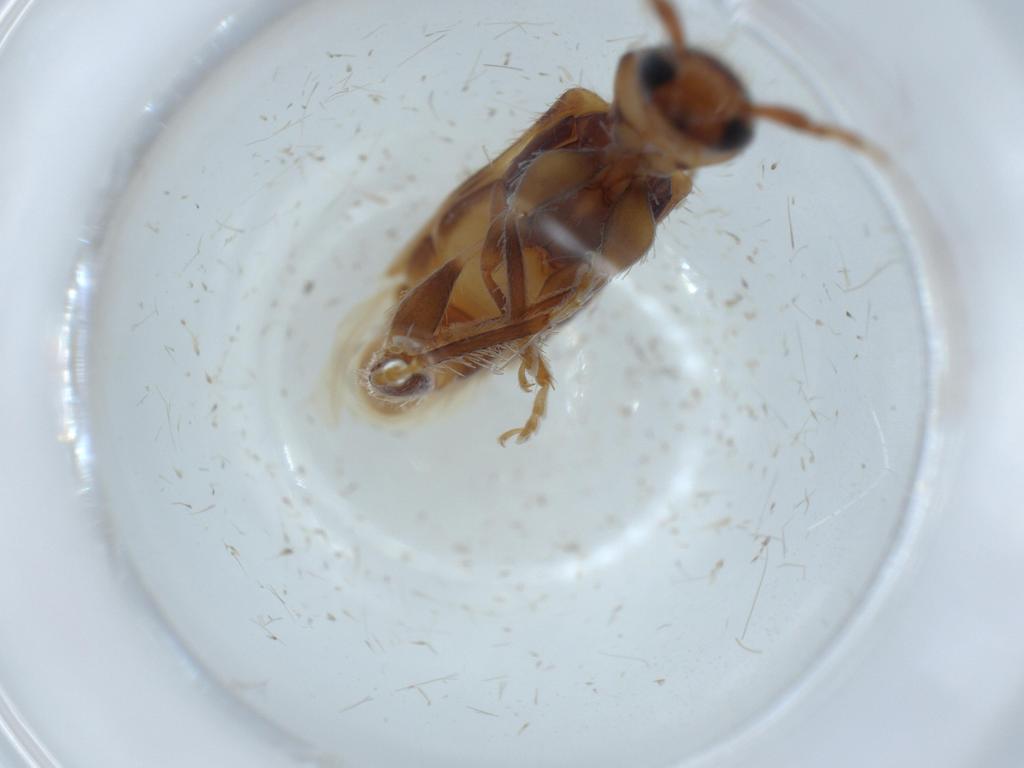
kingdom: Animalia
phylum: Arthropoda
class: Insecta
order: Coleoptera
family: Cerambycidae
